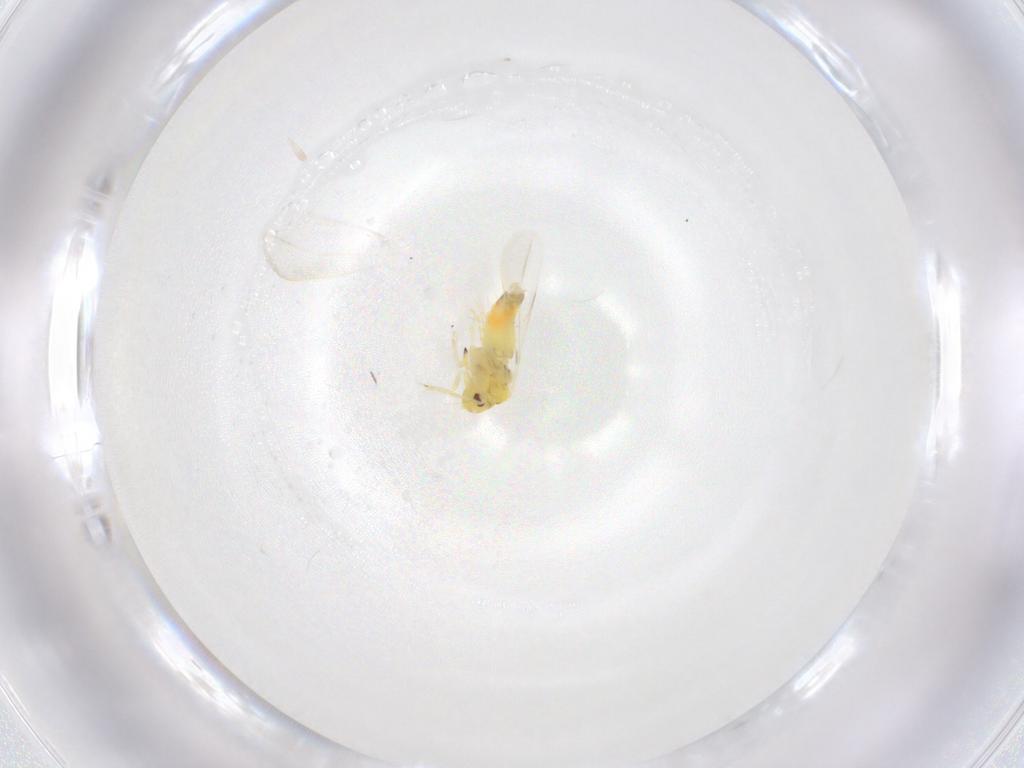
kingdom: Animalia
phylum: Arthropoda
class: Insecta
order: Hemiptera
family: Aleyrodidae
